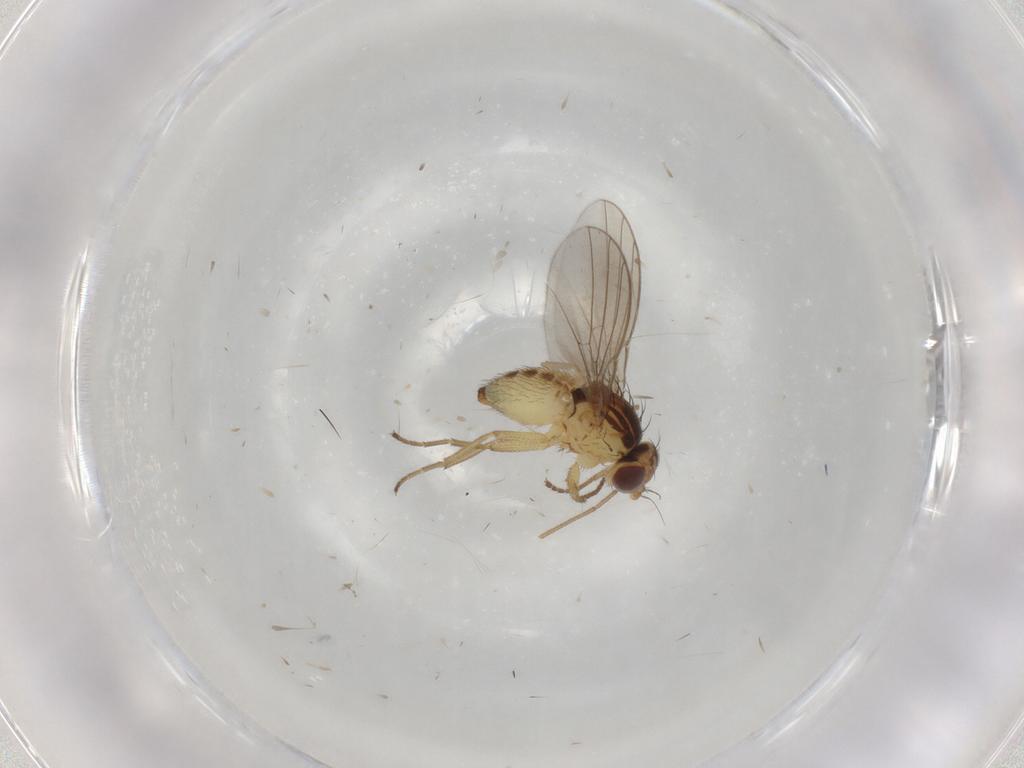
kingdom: Animalia
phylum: Arthropoda
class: Insecta
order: Diptera
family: Agromyzidae
